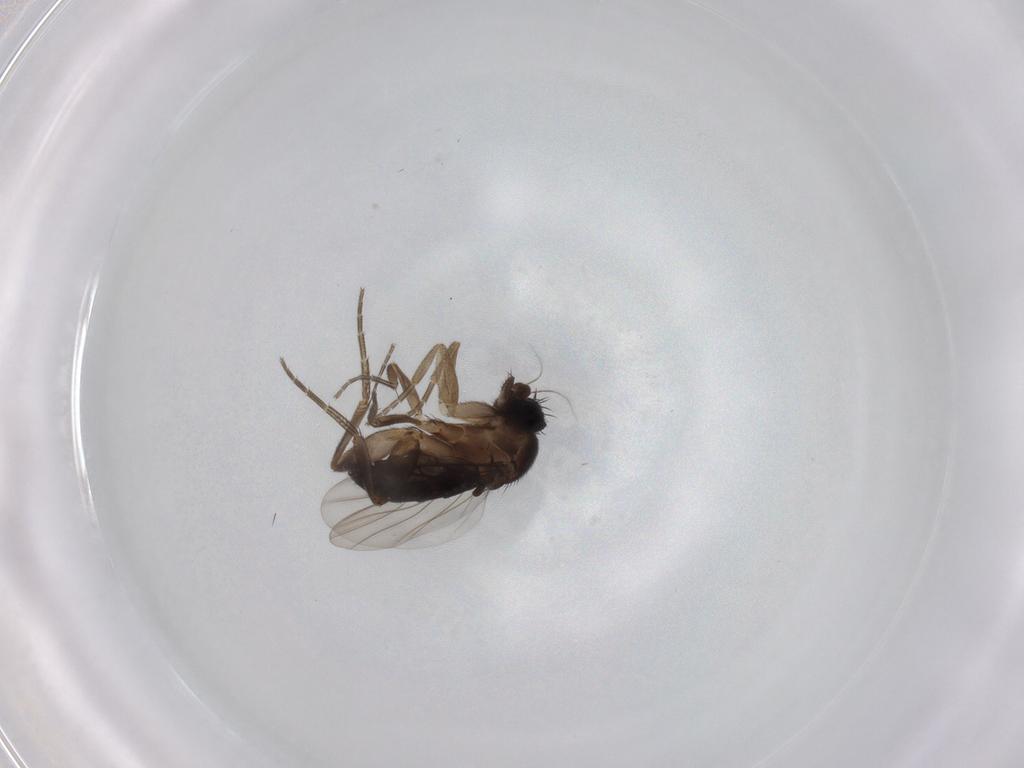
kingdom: Animalia
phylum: Arthropoda
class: Insecta
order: Diptera
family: Phoridae
